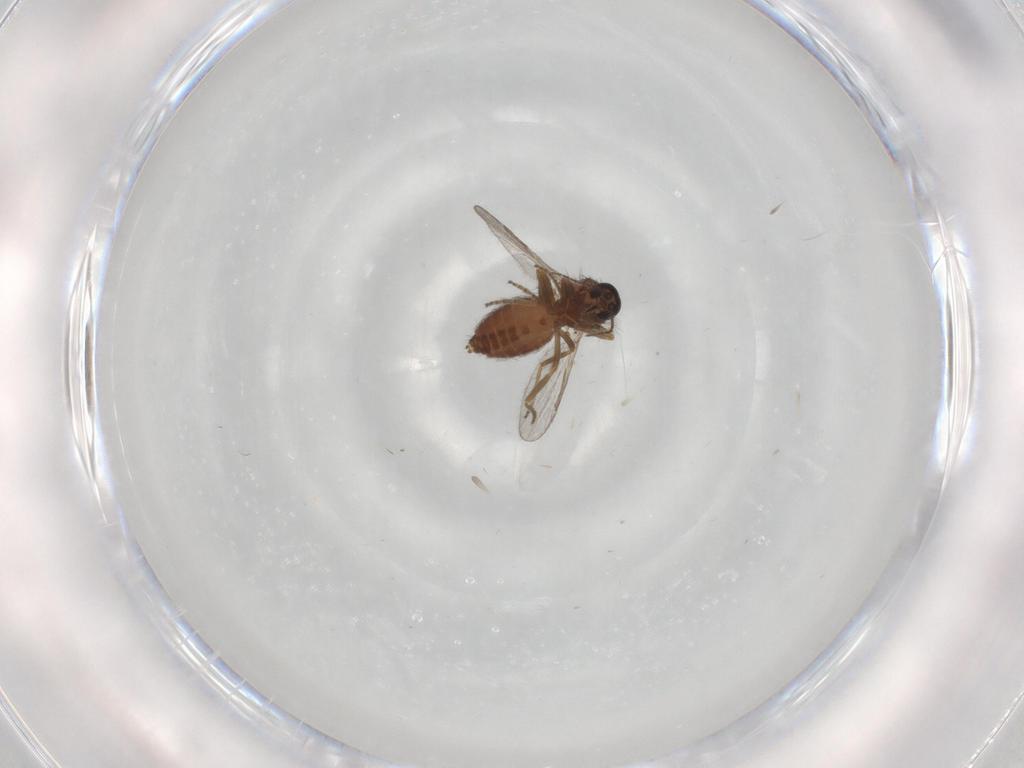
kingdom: Animalia
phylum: Arthropoda
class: Insecta
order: Diptera
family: Ceratopogonidae
